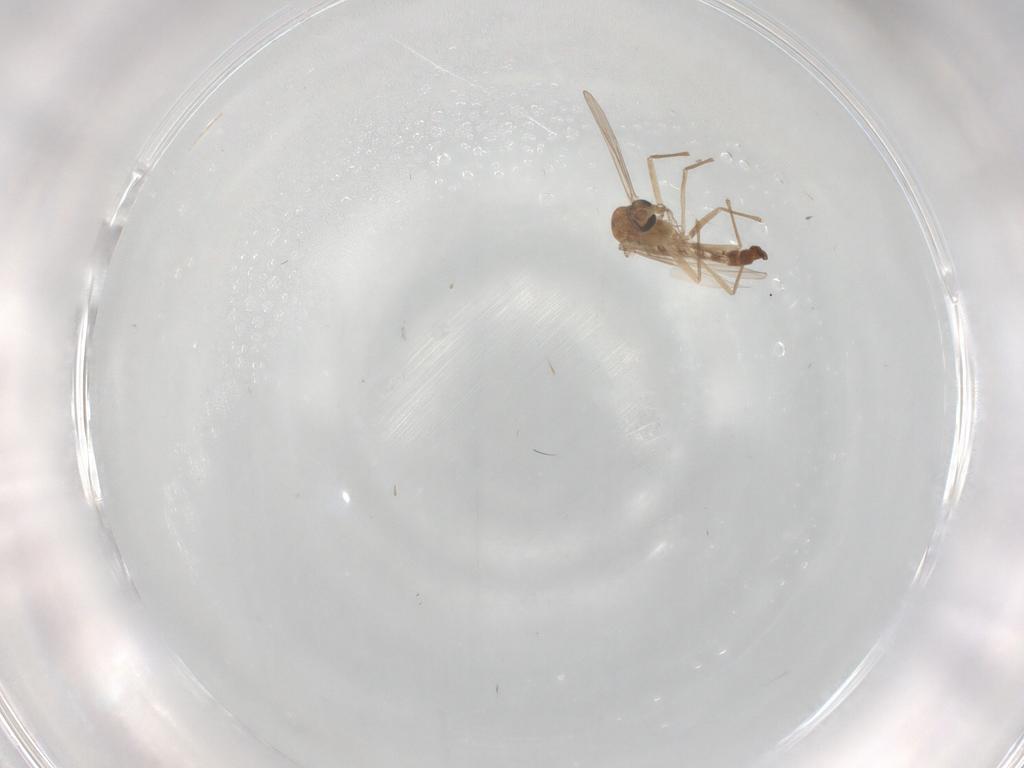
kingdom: Animalia
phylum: Arthropoda
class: Insecta
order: Diptera
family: Chironomidae
